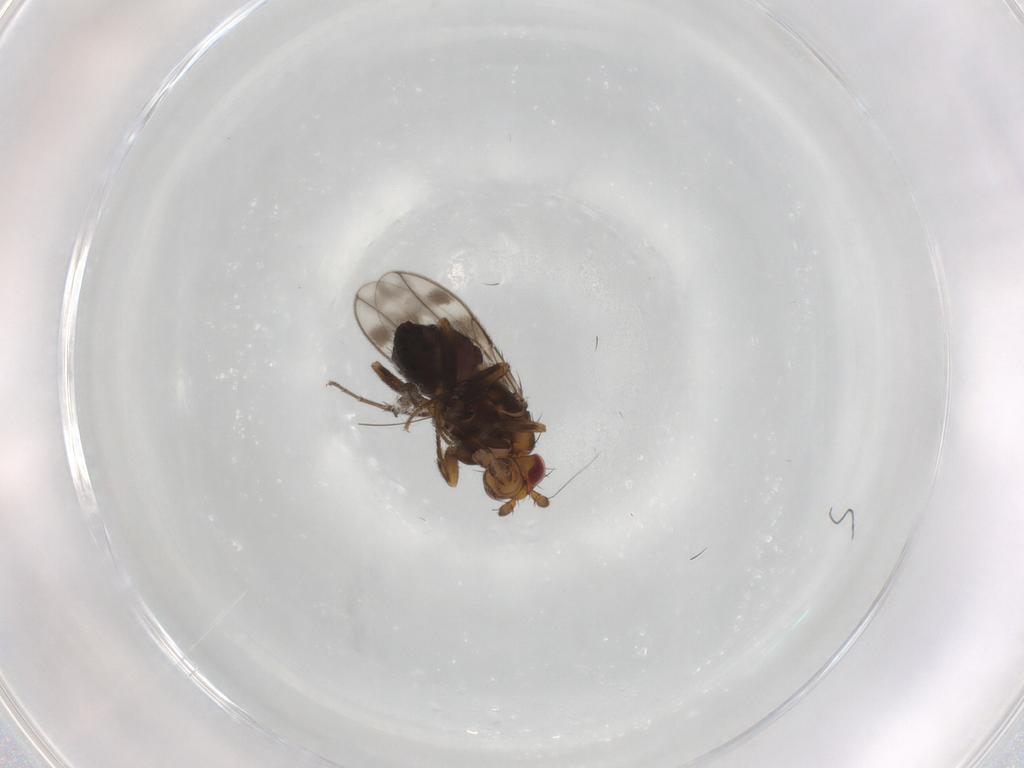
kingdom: Animalia
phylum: Arthropoda
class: Insecta
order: Diptera
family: Sphaeroceridae
